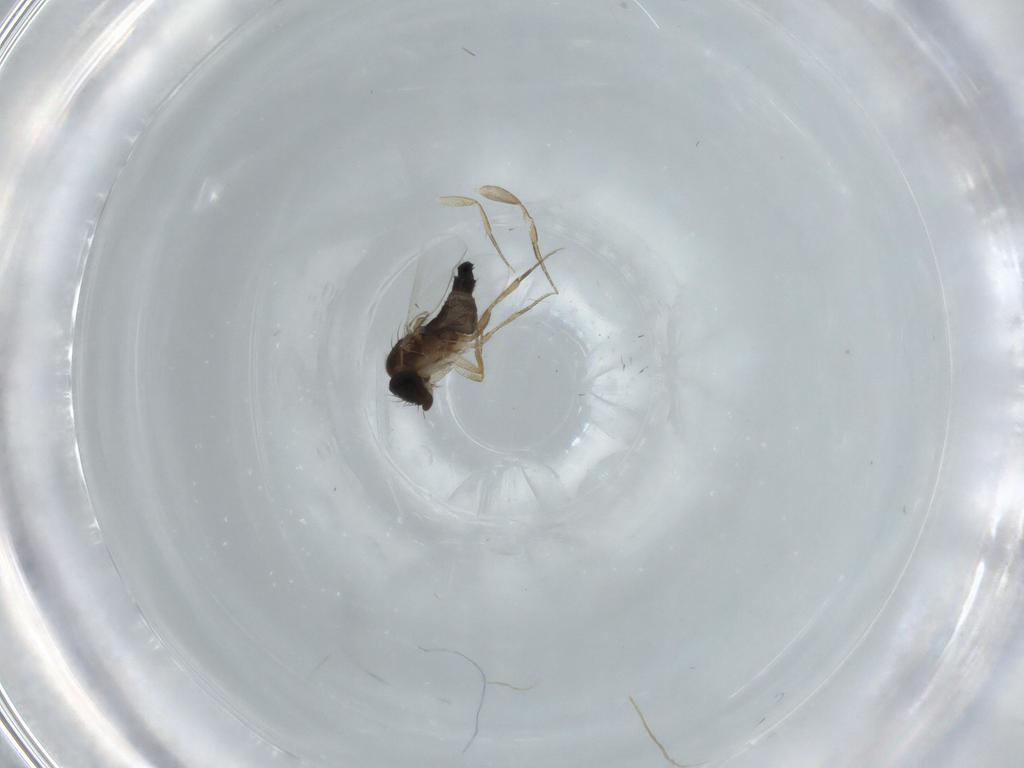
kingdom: Animalia
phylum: Arthropoda
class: Insecta
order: Diptera
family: Phoridae
